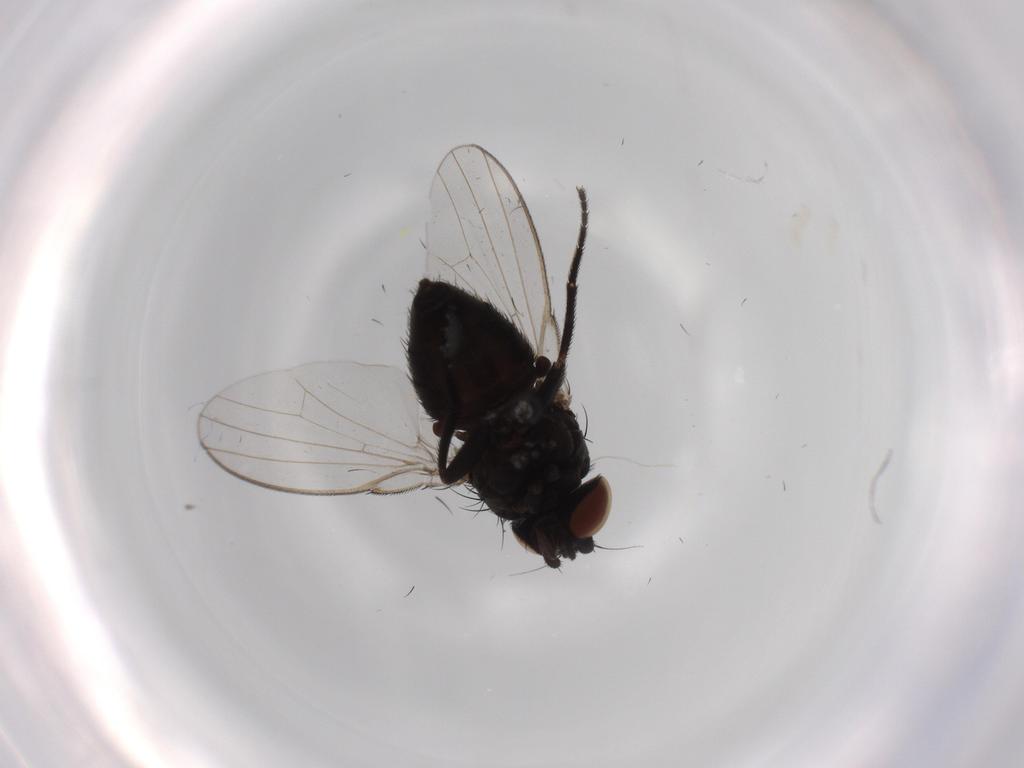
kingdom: Animalia
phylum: Arthropoda
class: Insecta
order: Diptera
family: Milichiidae
